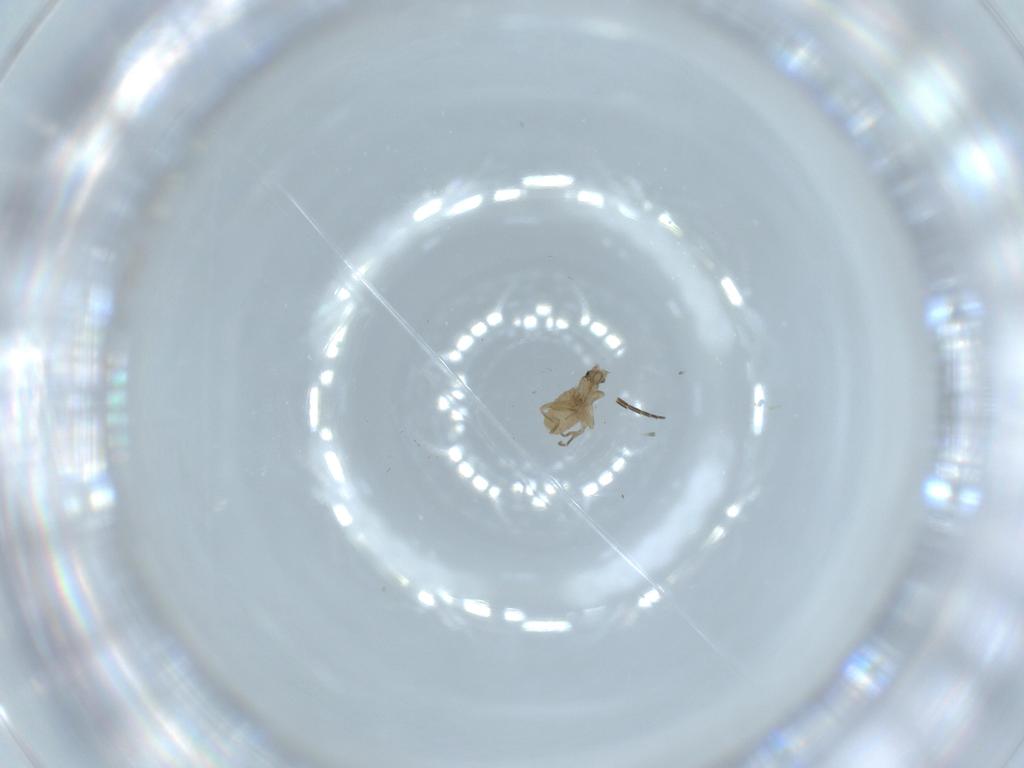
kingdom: Animalia
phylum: Arthropoda
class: Insecta
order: Diptera
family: Phoridae
